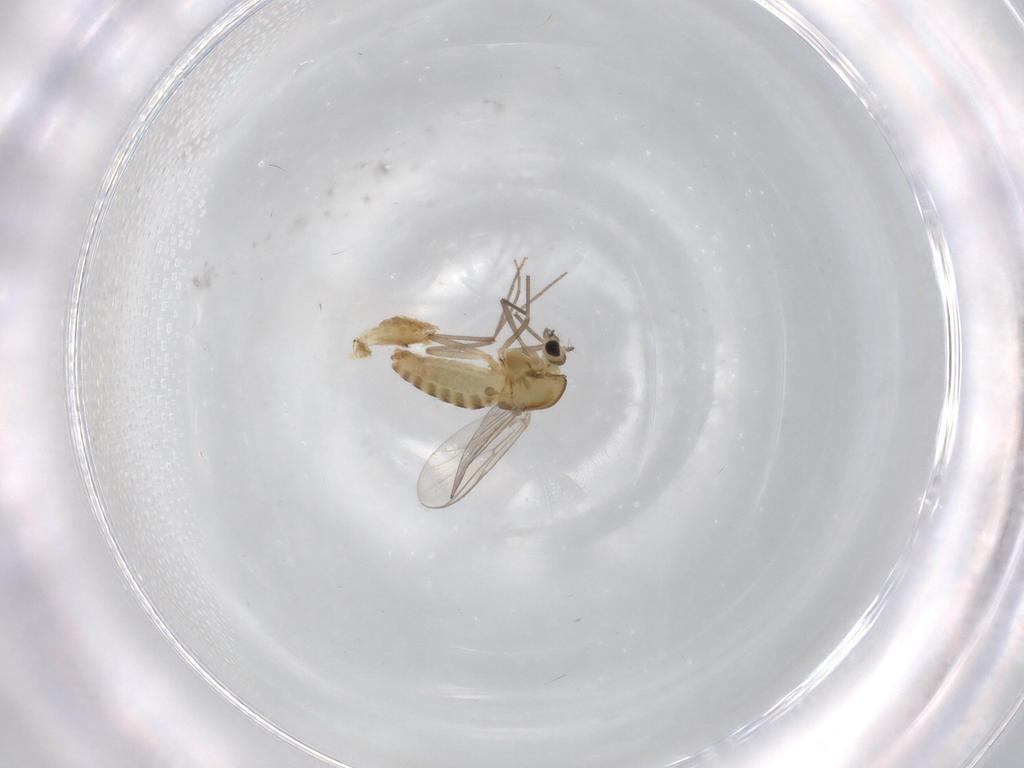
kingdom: Animalia
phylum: Arthropoda
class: Insecta
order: Diptera
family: Chironomidae
